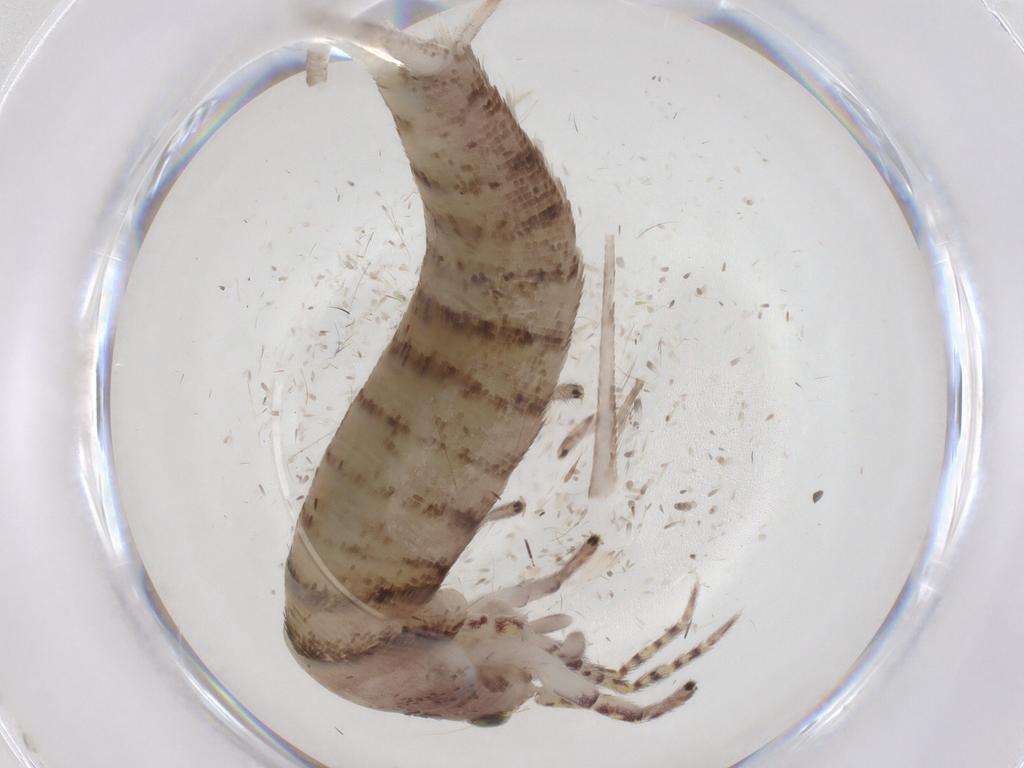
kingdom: Animalia
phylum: Arthropoda
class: Insecta
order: Archaeognatha
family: Machilidae
